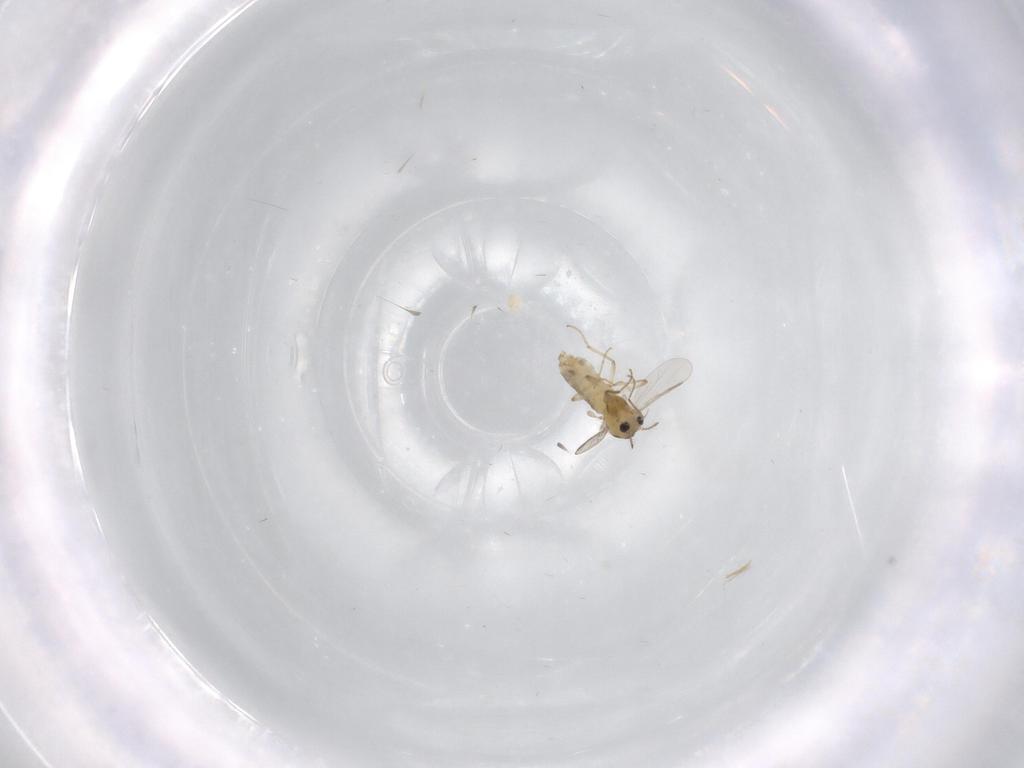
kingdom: Animalia
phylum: Arthropoda
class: Insecta
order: Diptera
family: Chironomidae
